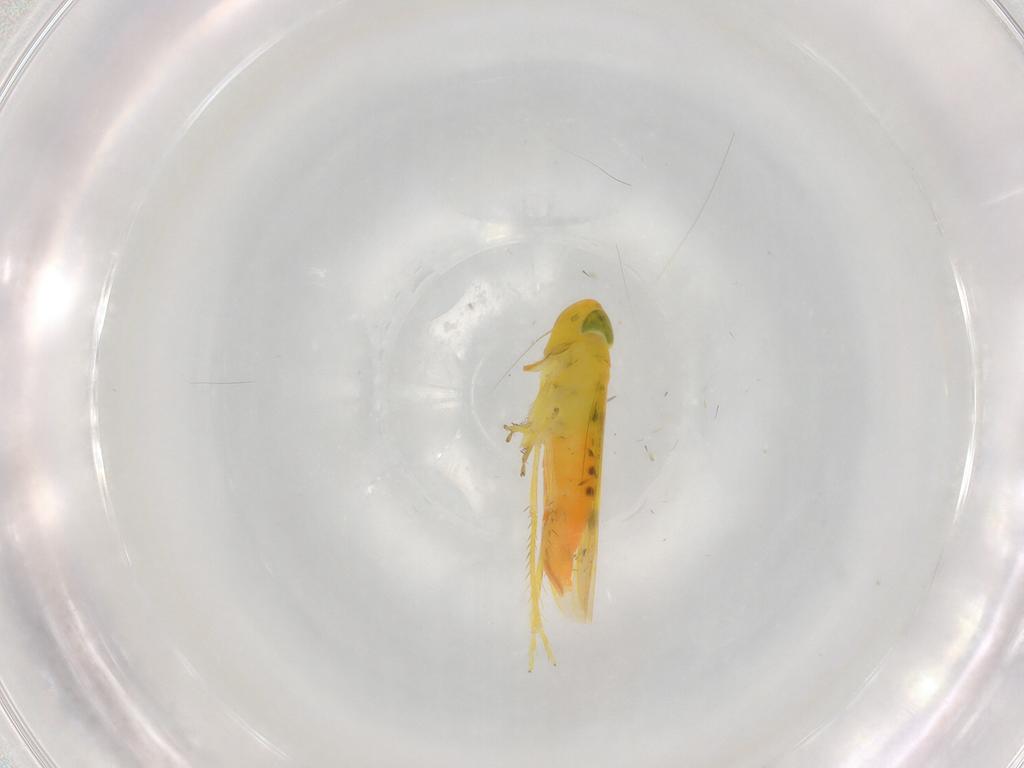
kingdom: Animalia
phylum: Arthropoda
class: Insecta
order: Hemiptera
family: Cicadellidae
